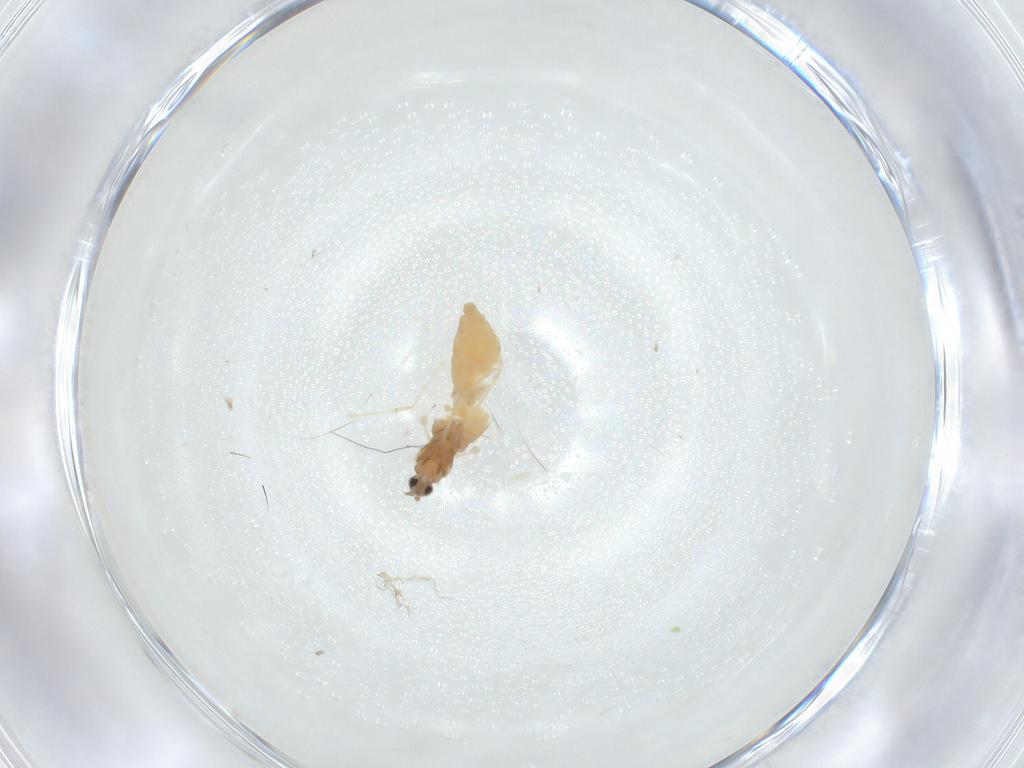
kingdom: Animalia
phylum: Arthropoda
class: Insecta
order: Diptera
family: Cecidomyiidae
